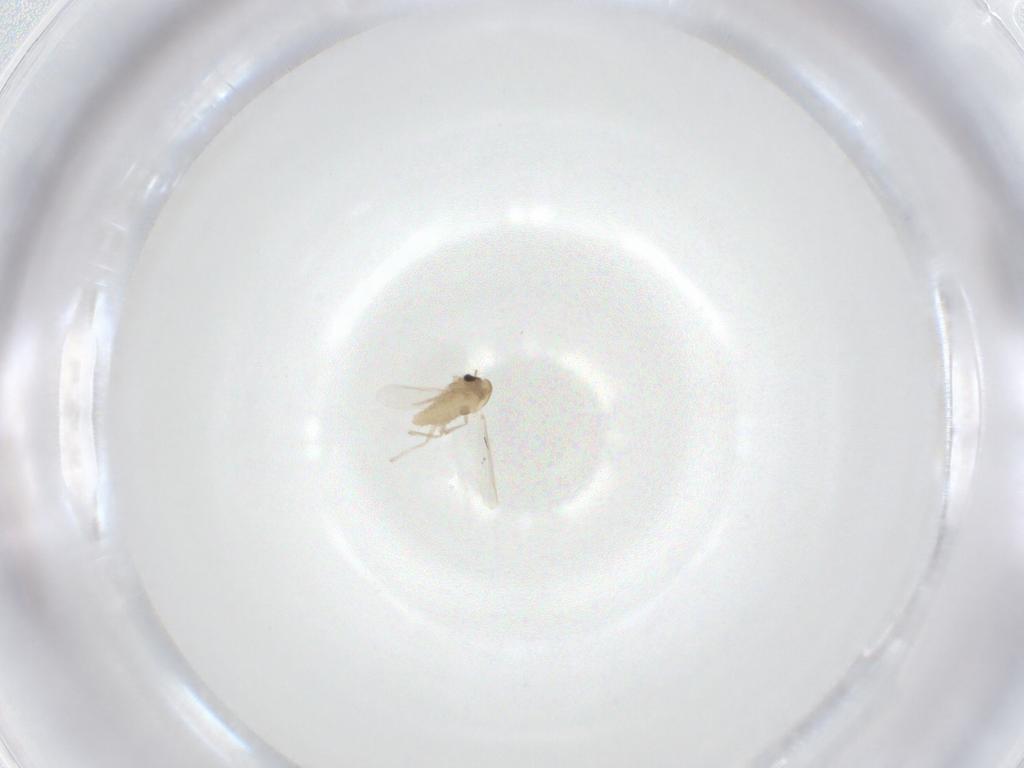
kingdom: Animalia
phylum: Arthropoda
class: Insecta
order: Diptera
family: Chironomidae
